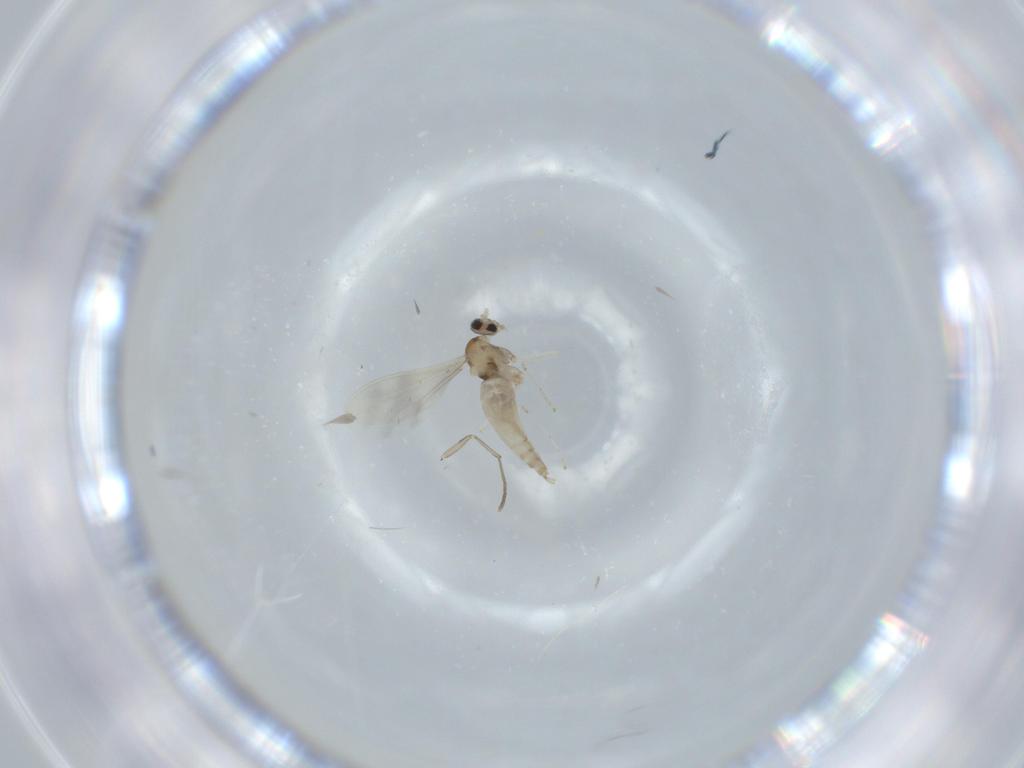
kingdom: Animalia
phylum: Arthropoda
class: Insecta
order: Diptera
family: Cecidomyiidae
